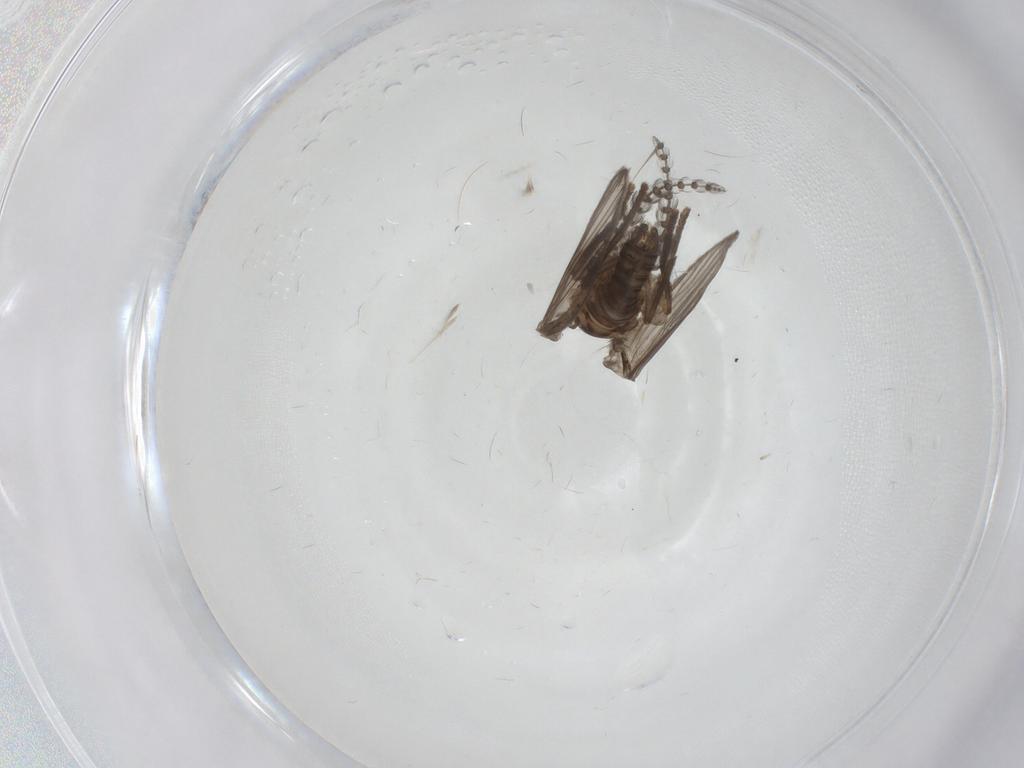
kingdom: Animalia
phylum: Arthropoda
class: Insecta
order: Diptera
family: Psychodidae
